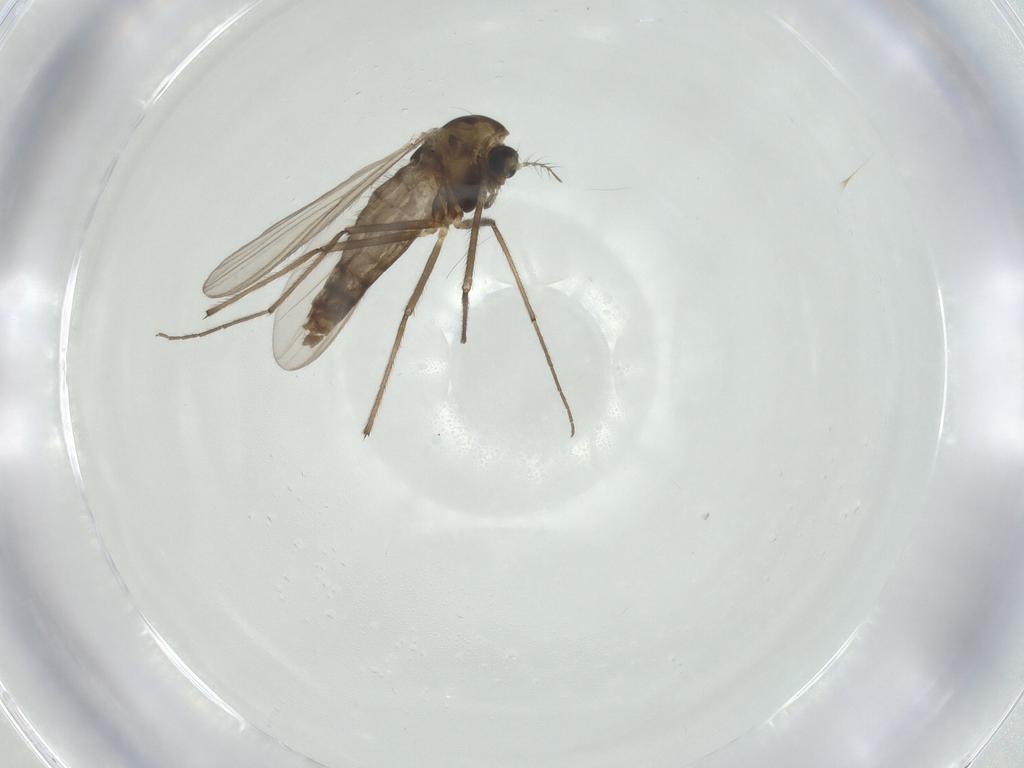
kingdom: Animalia
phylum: Arthropoda
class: Insecta
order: Diptera
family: Chironomidae
